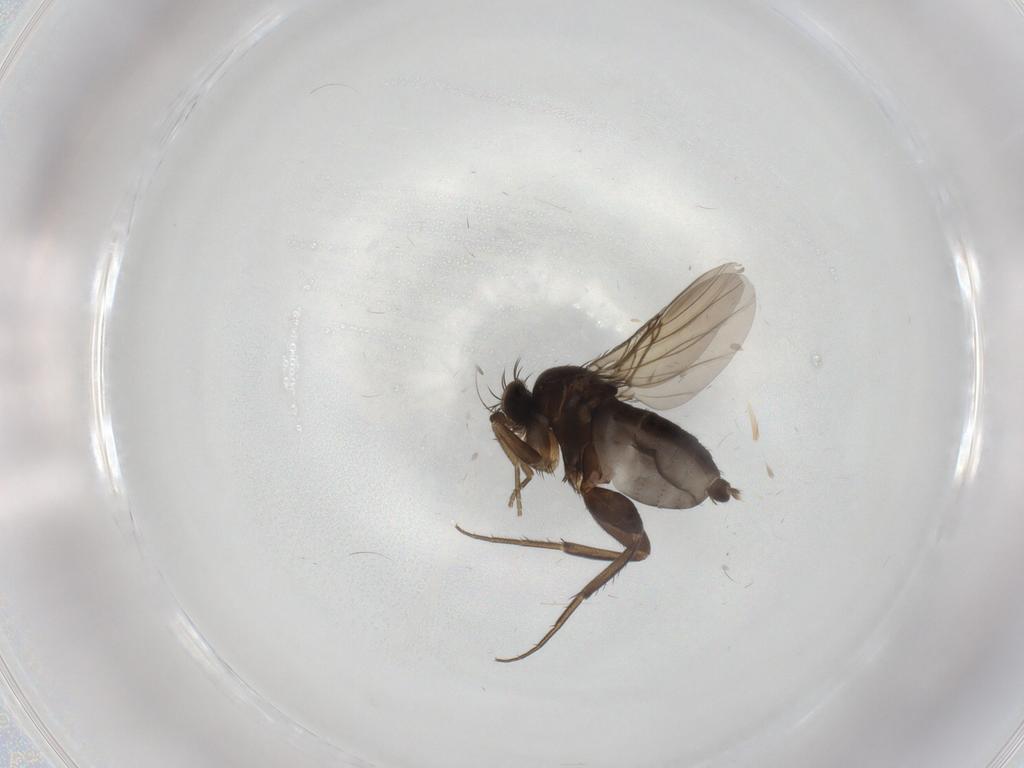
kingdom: Animalia
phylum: Arthropoda
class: Insecta
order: Diptera
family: Phoridae
